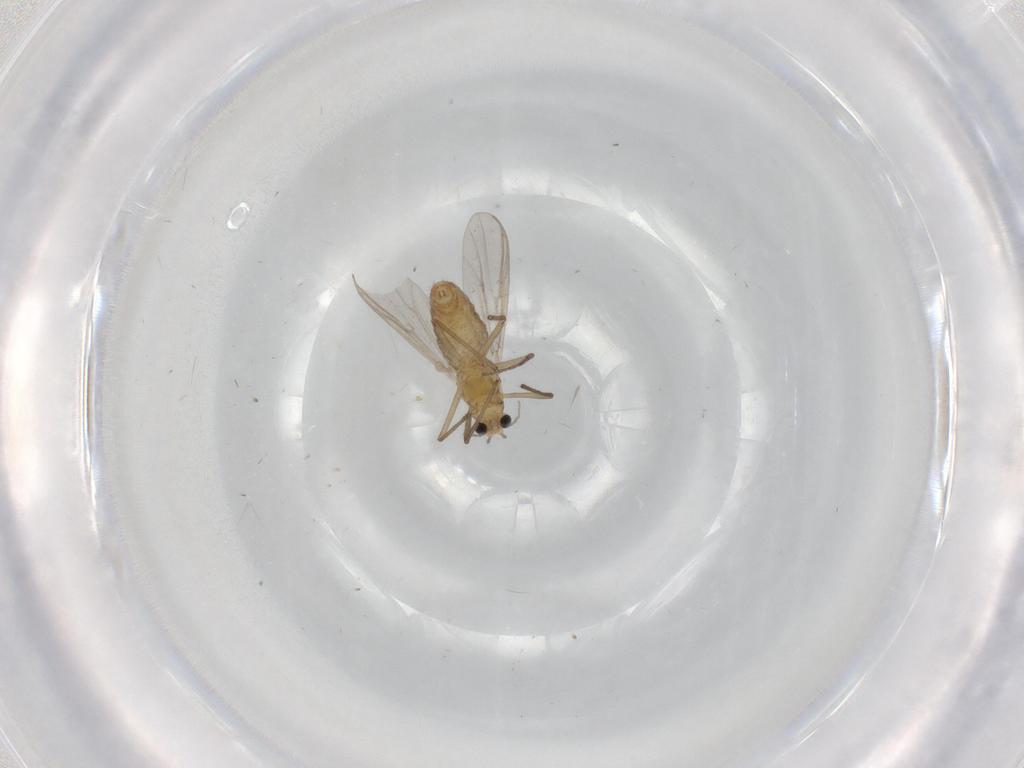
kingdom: Animalia
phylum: Arthropoda
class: Insecta
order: Diptera
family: Chironomidae
